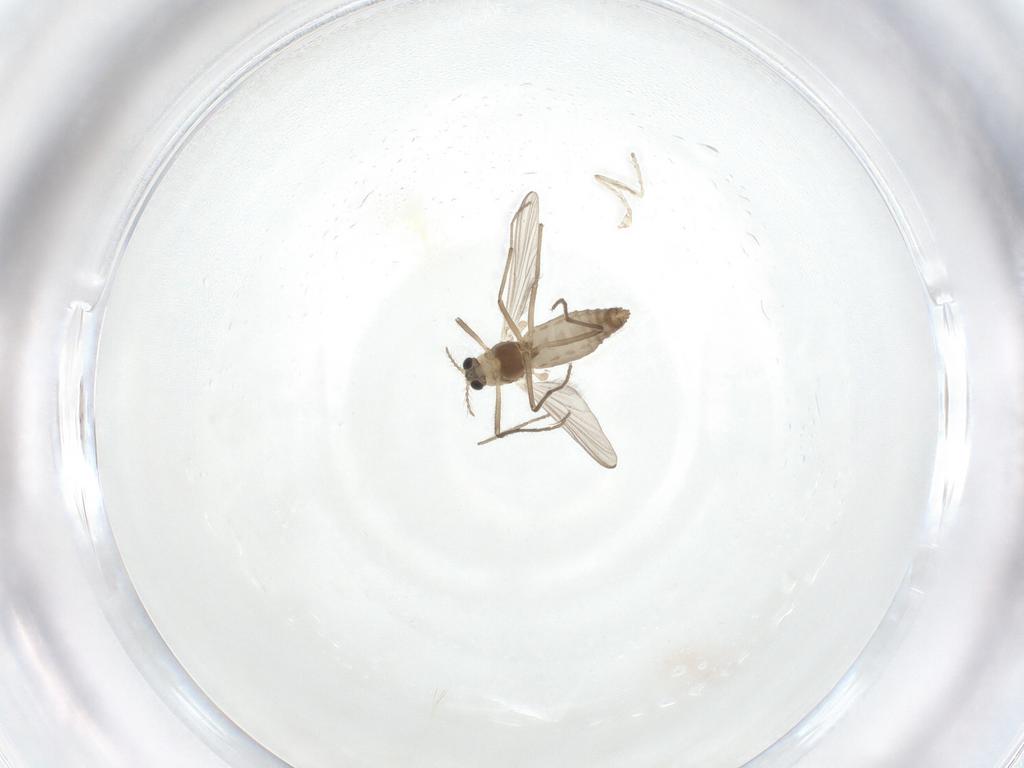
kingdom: Animalia
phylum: Arthropoda
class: Insecta
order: Diptera
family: Chironomidae
